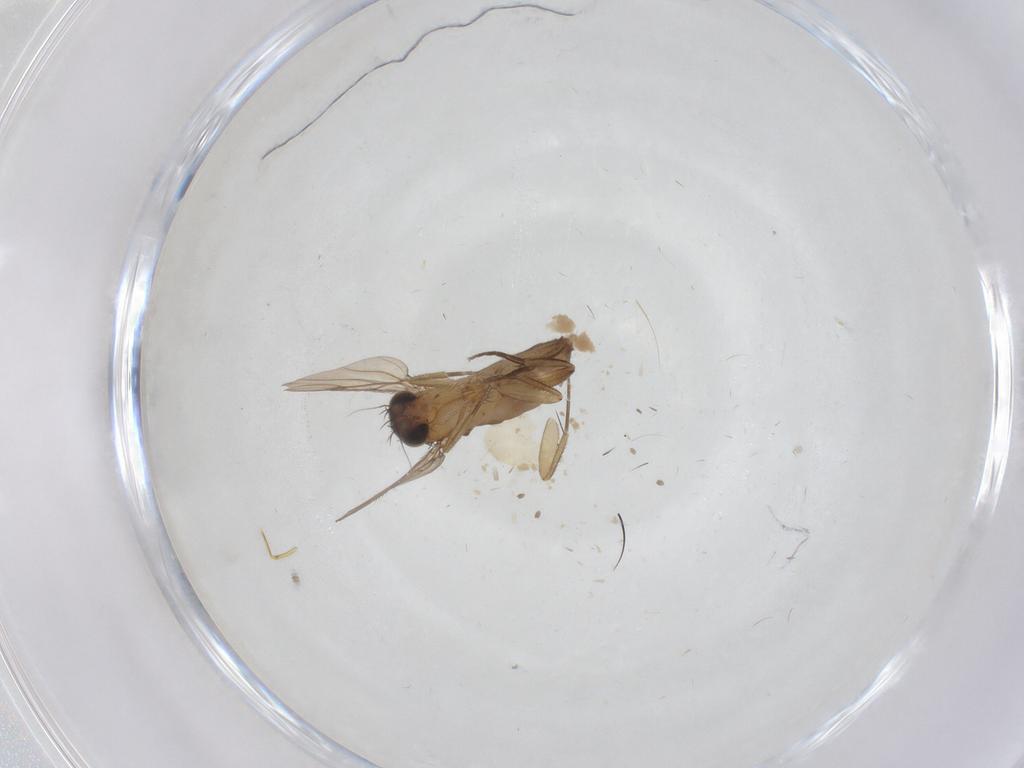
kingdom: Animalia
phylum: Arthropoda
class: Insecta
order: Diptera
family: Phoridae
